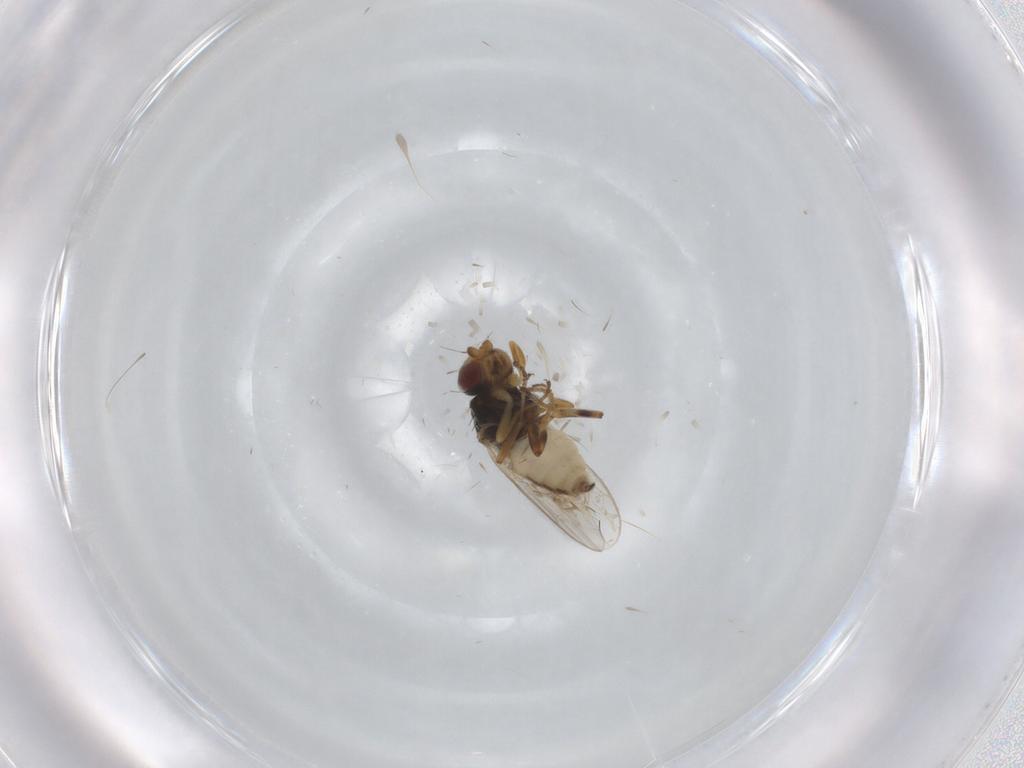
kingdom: Animalia
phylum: Arthropoda
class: Insecta
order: Diptera
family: Chloropidae
